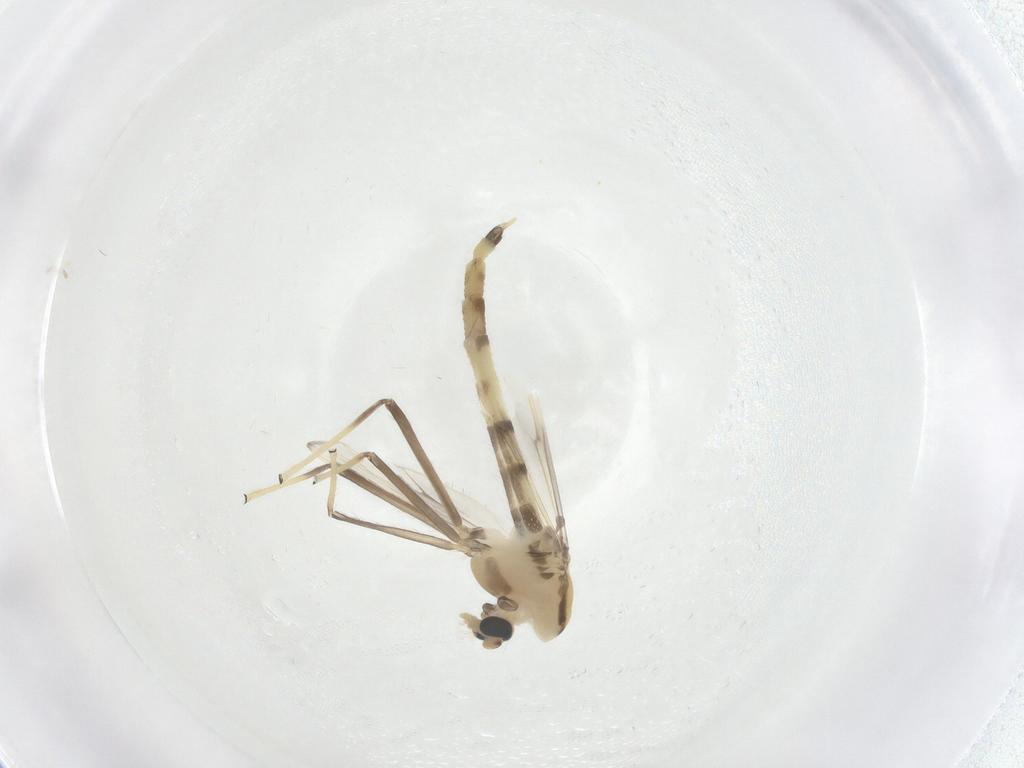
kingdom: Animalia
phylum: Arthropoda
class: Insecta
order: Diptera
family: Chironomidae
